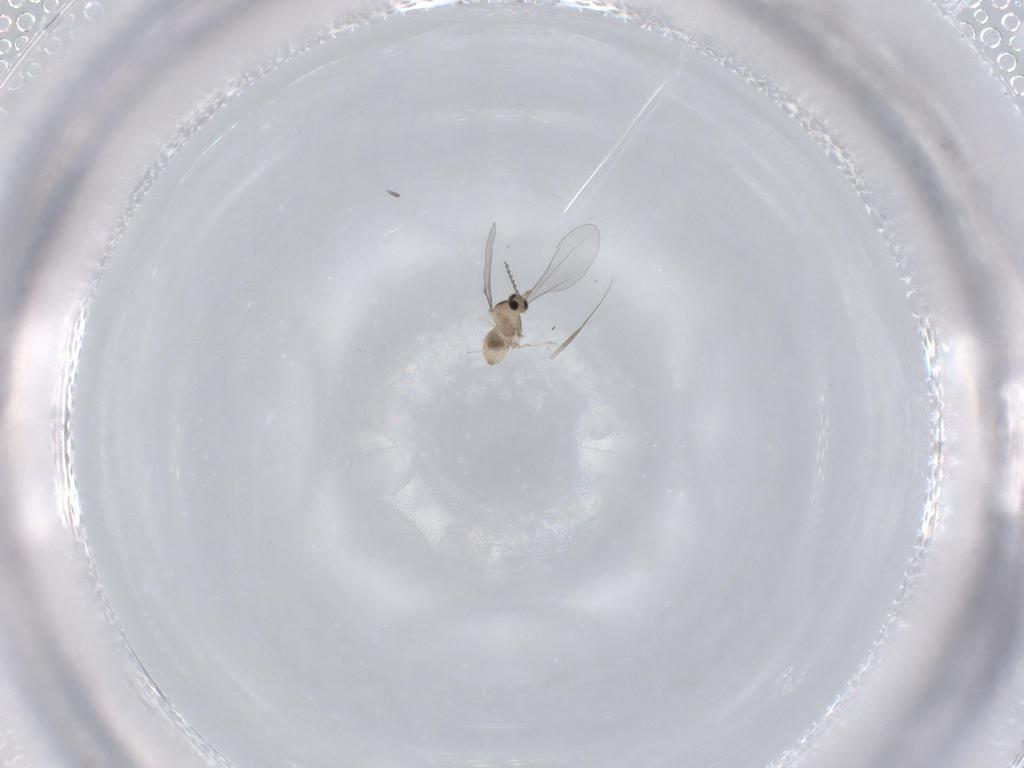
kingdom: Animalia
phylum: Arthropoda
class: Insecta
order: Diptera
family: Cecidomyiidae
